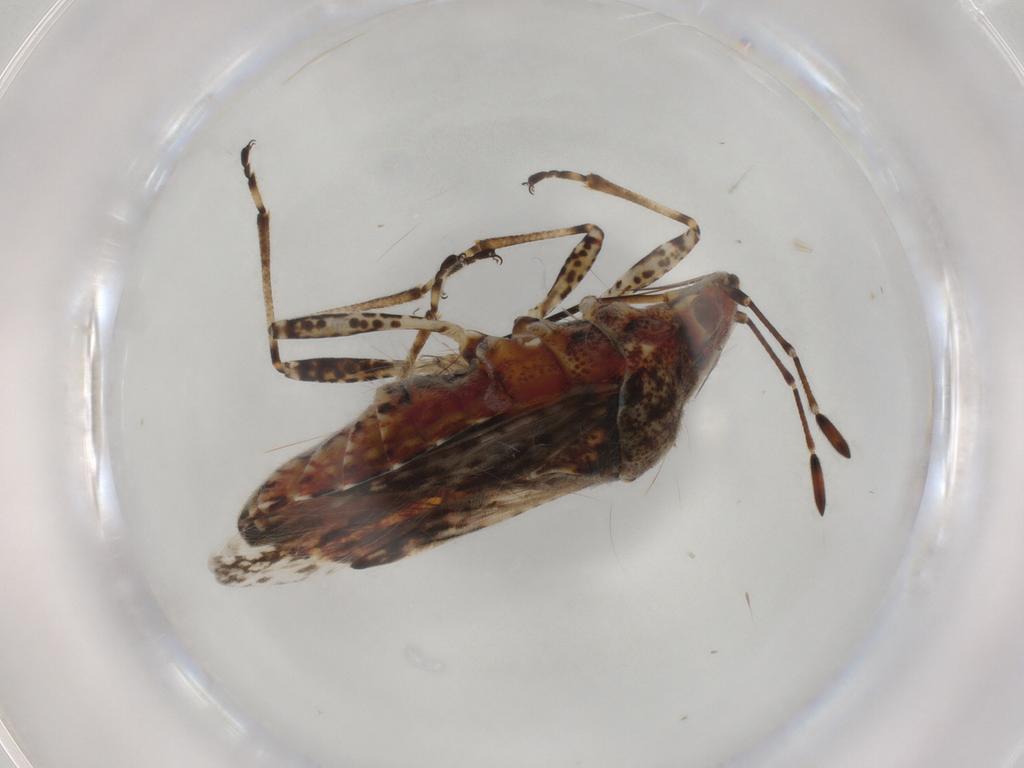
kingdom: Animalia
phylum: Arthropoda
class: Insecta
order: Hemiptera
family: Lygaeidae
